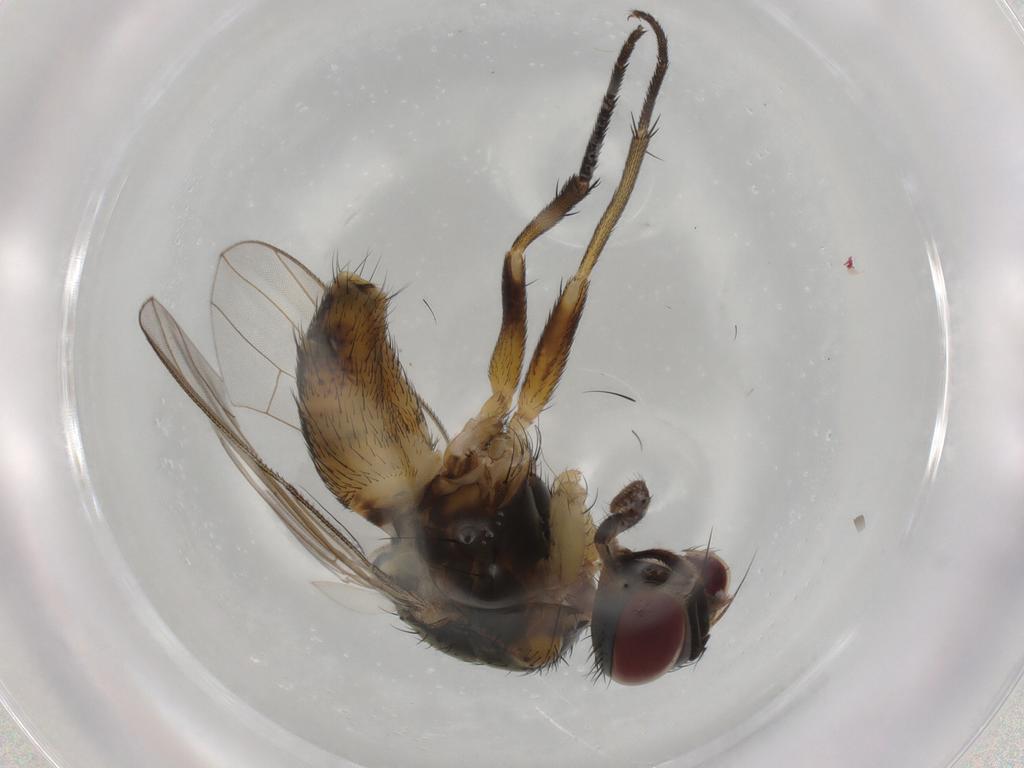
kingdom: Animalia
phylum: Arthropoda
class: Insecta
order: Diptera
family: Muscidae
